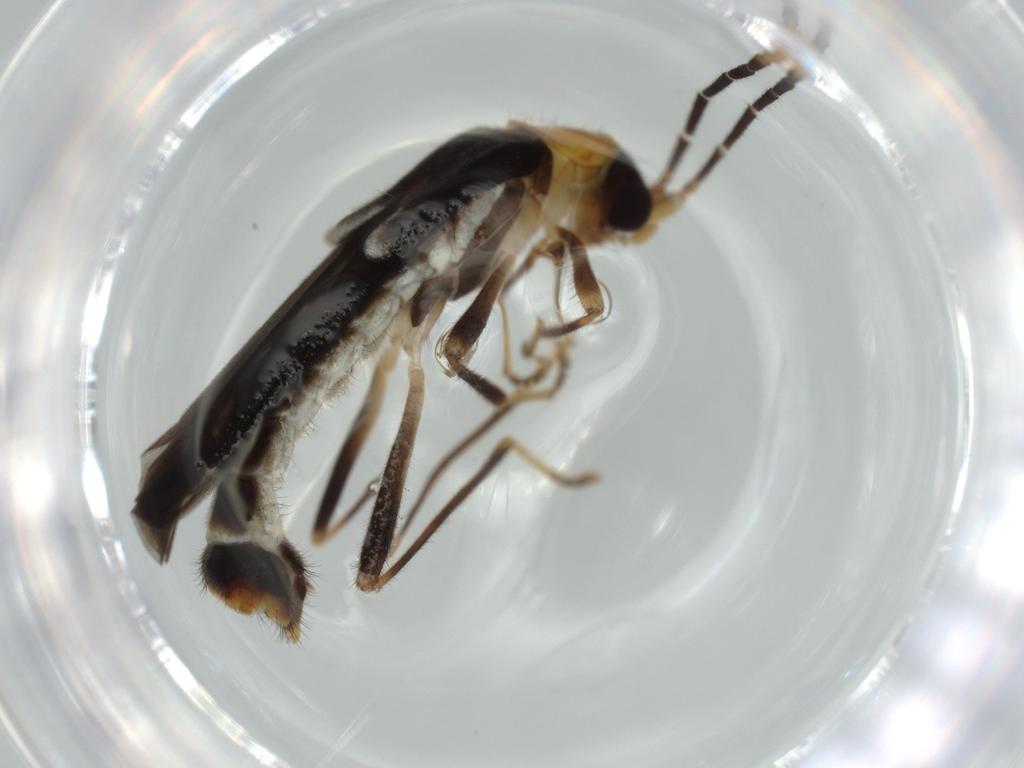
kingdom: Animalia
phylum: Arthropoda
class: Insecta
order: Coleoptera
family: Cantharidae
